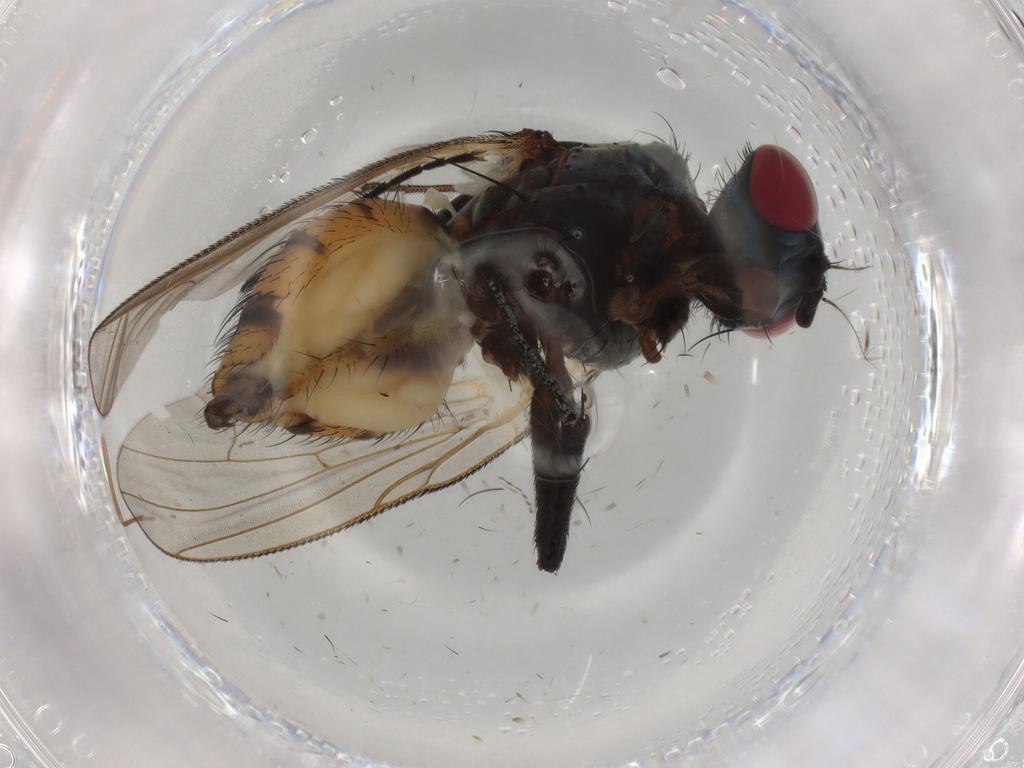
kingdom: Animalia
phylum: Arthropoda
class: Insecta
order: Diptera
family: Anthomyiidae
